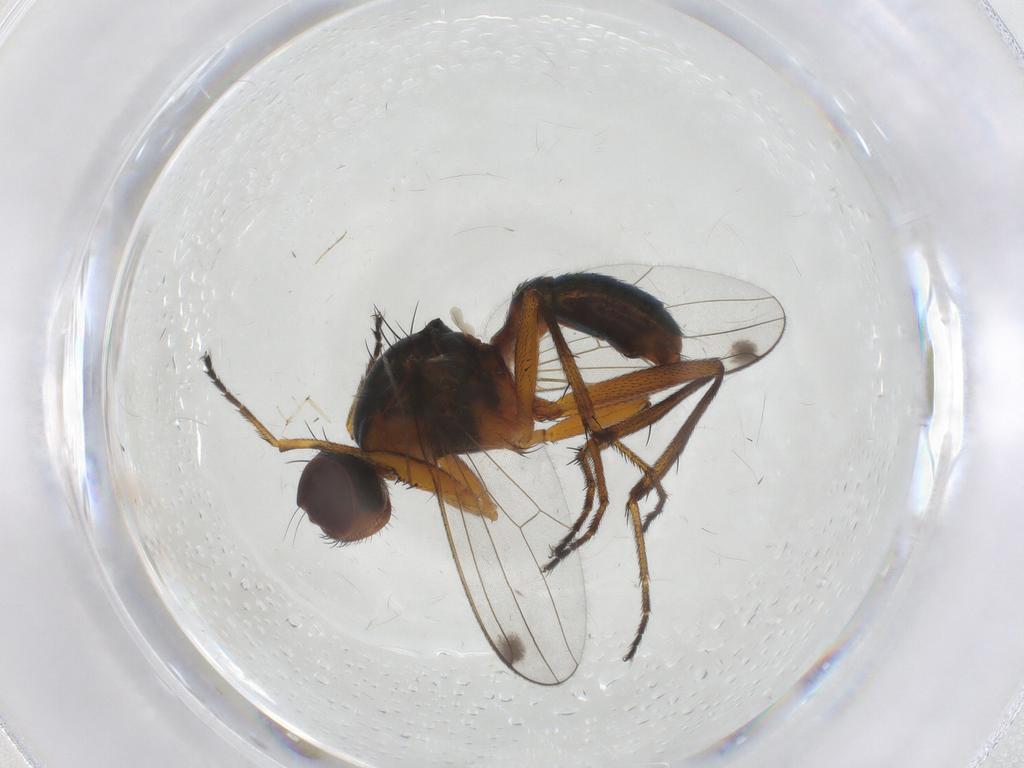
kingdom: Animalia
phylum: Arthropoda
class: Insecta
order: Diptera
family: Sepsidae
